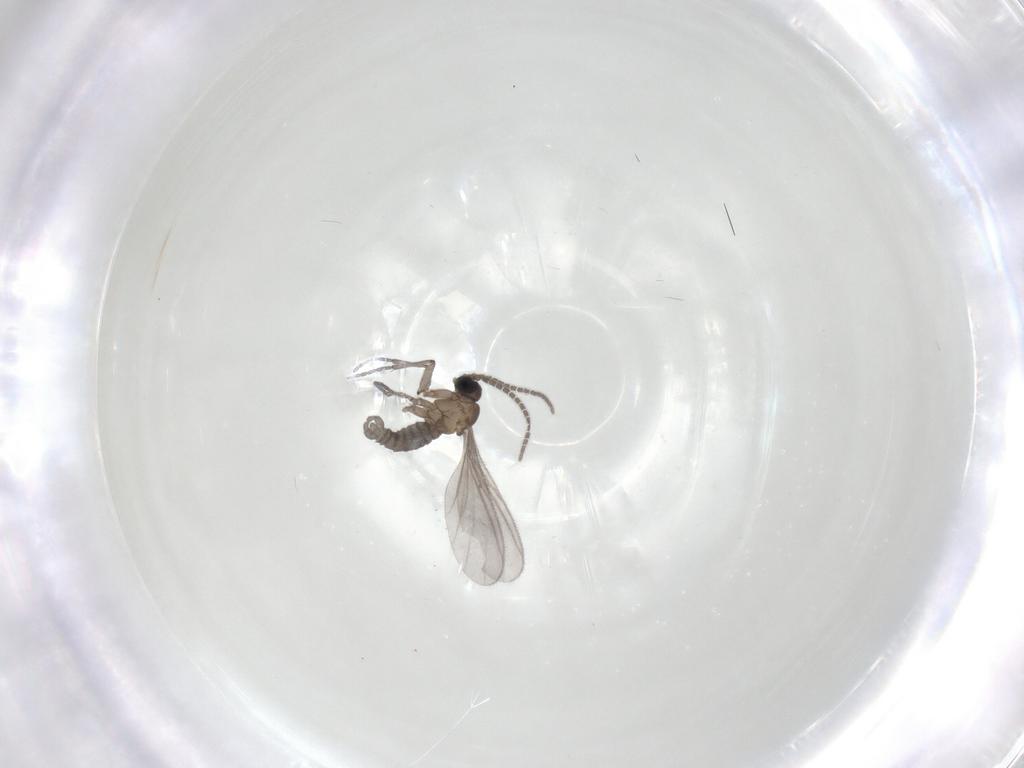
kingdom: Animalia
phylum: Arthropoda
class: Insecta
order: Diptera
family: Sciaridae
